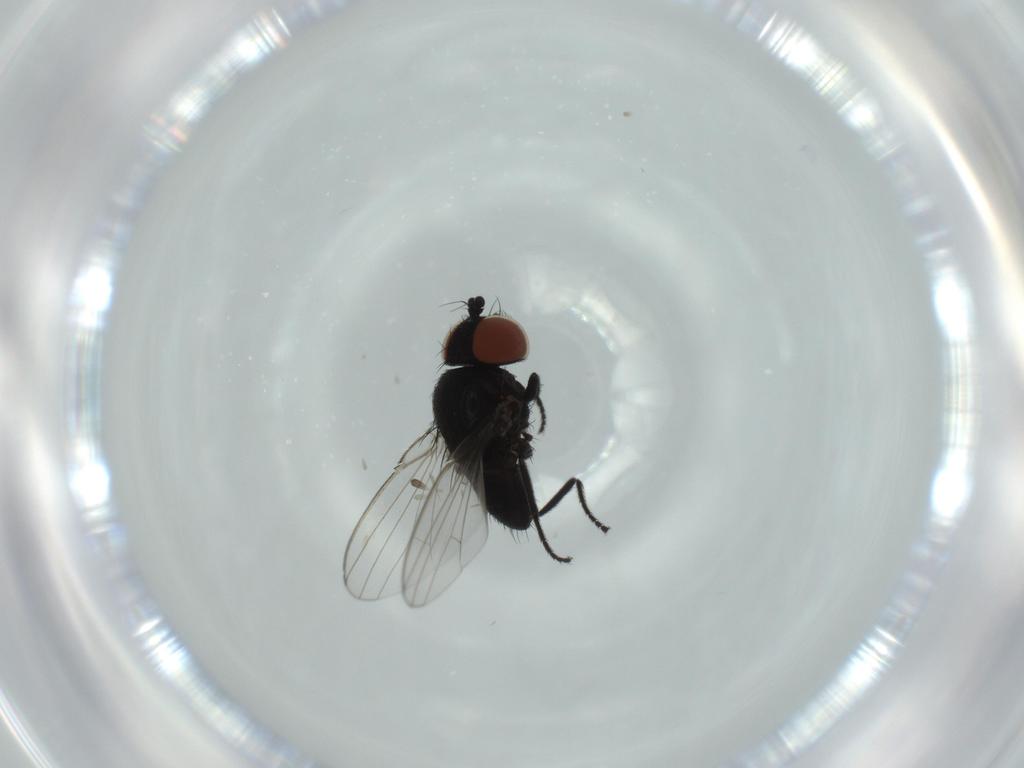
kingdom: Animalia
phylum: Arthropoda
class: Insecta
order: Diptera
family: Milichiidae
